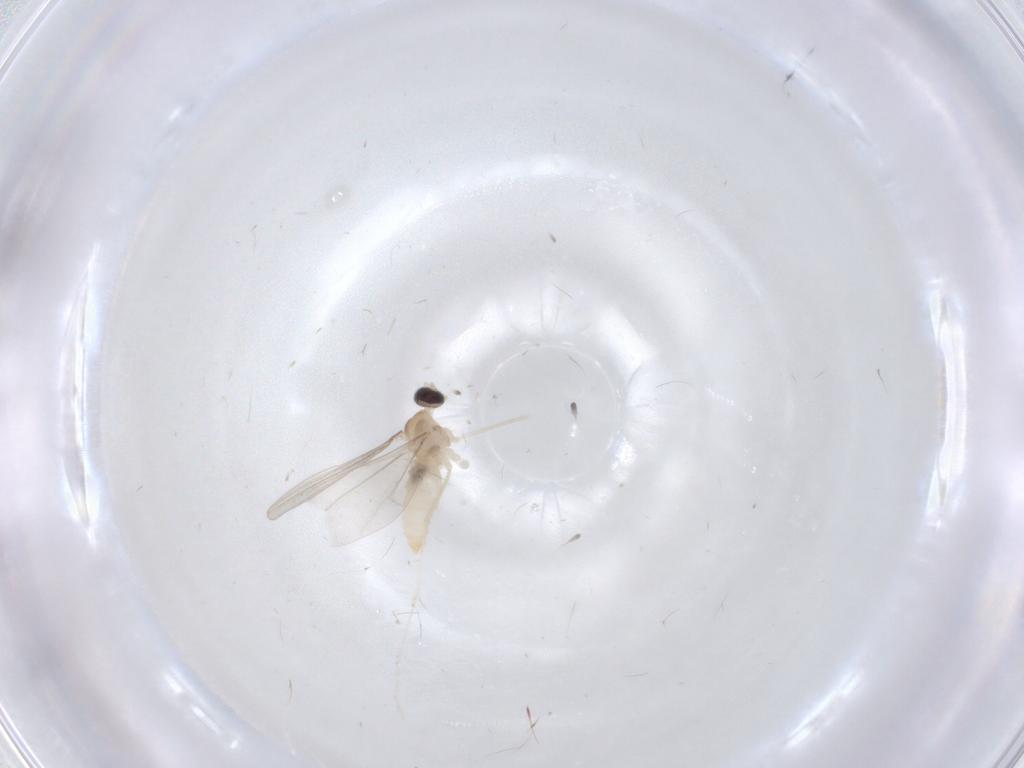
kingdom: Animalia
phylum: Arthropoda
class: Insecta
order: Diptera
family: Cecidomyiidae
